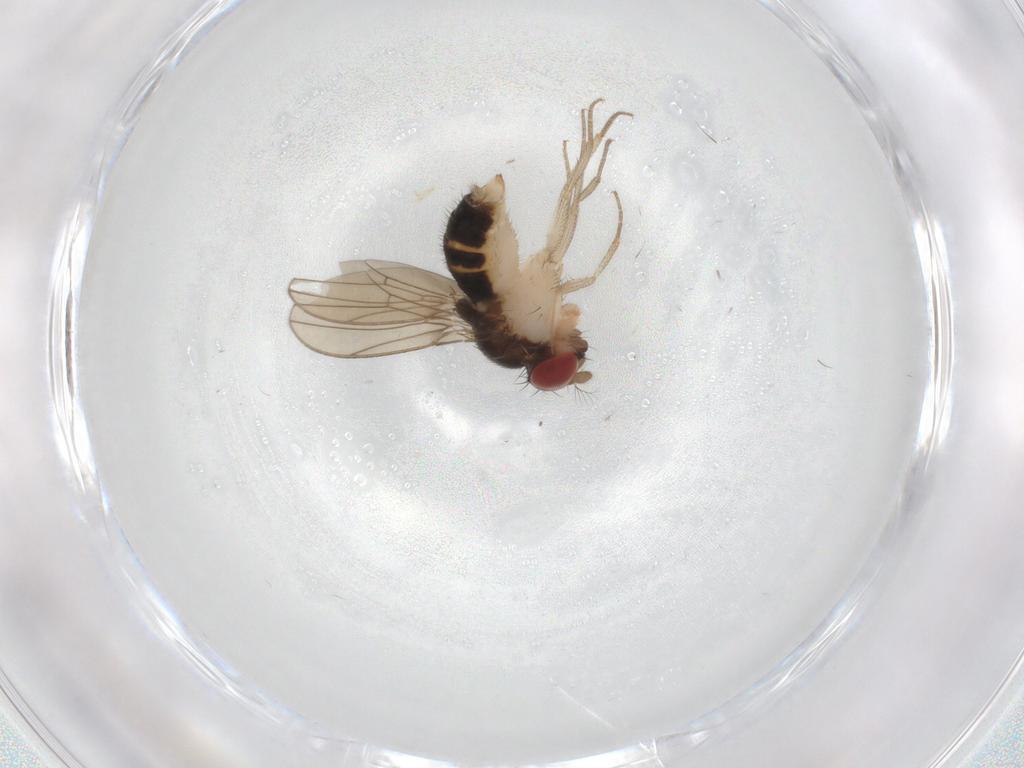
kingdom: Animalia
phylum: Arthropoda
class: Insecta
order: Diptera
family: Drosophilidae
